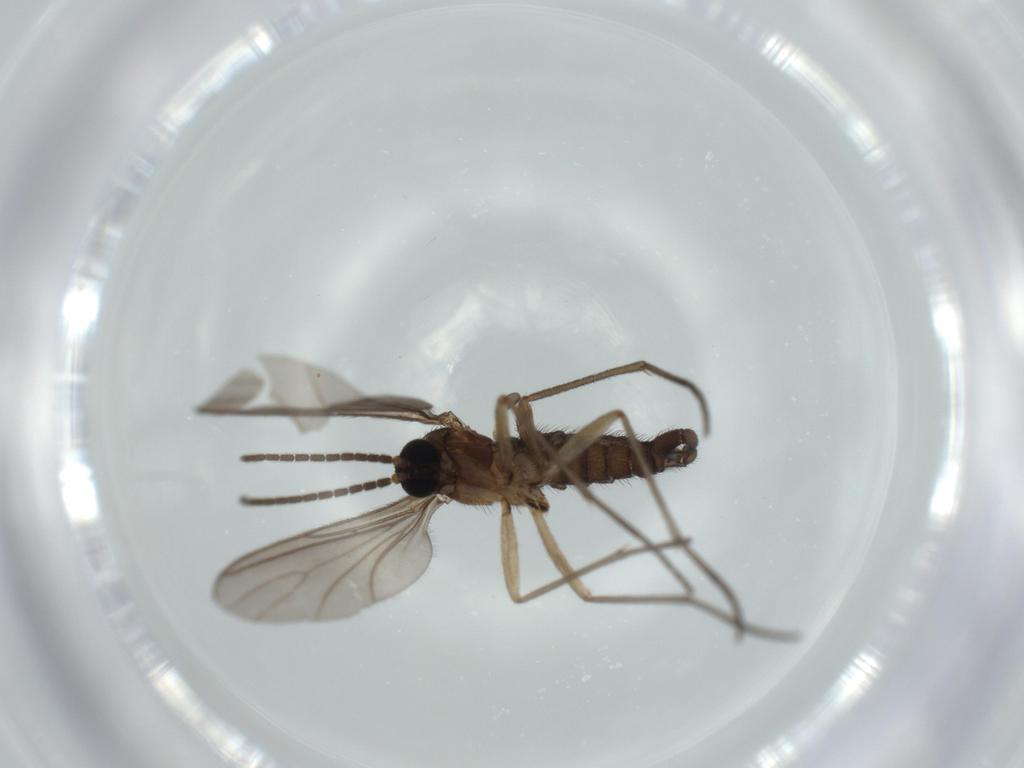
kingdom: Animalia
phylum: Arthropoda
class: Insecta
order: Diptera
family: Sciaridae
